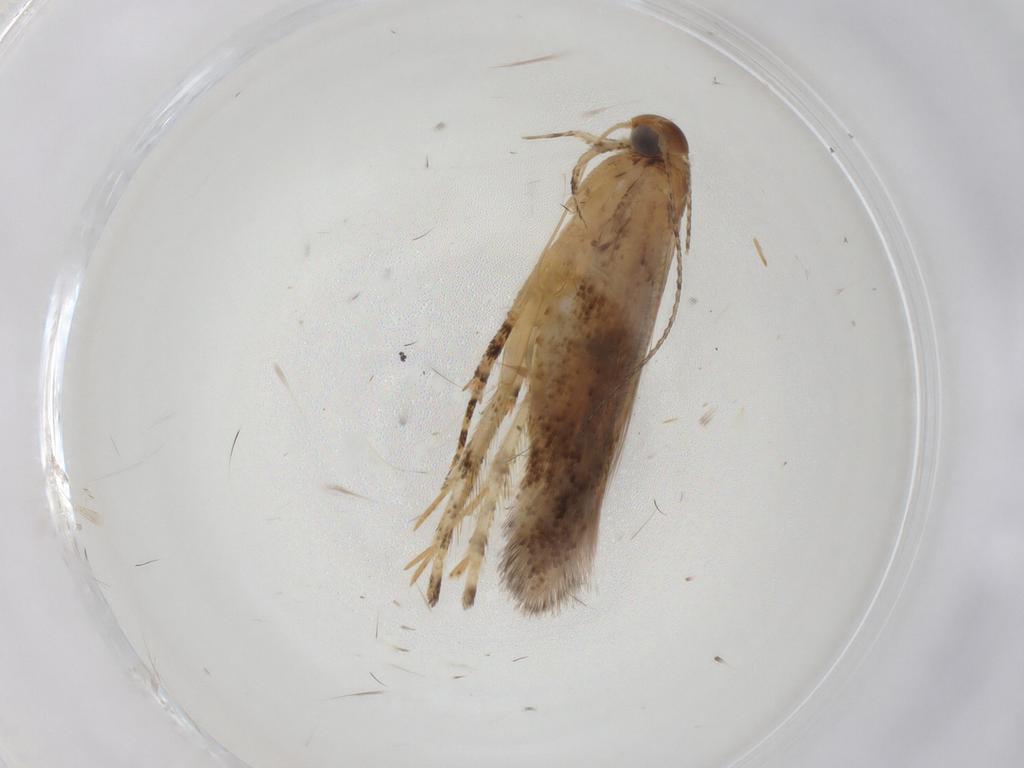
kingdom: Animalia
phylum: Arthropoda
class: Insecta
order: Lepidoptera
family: Gelechiidae
